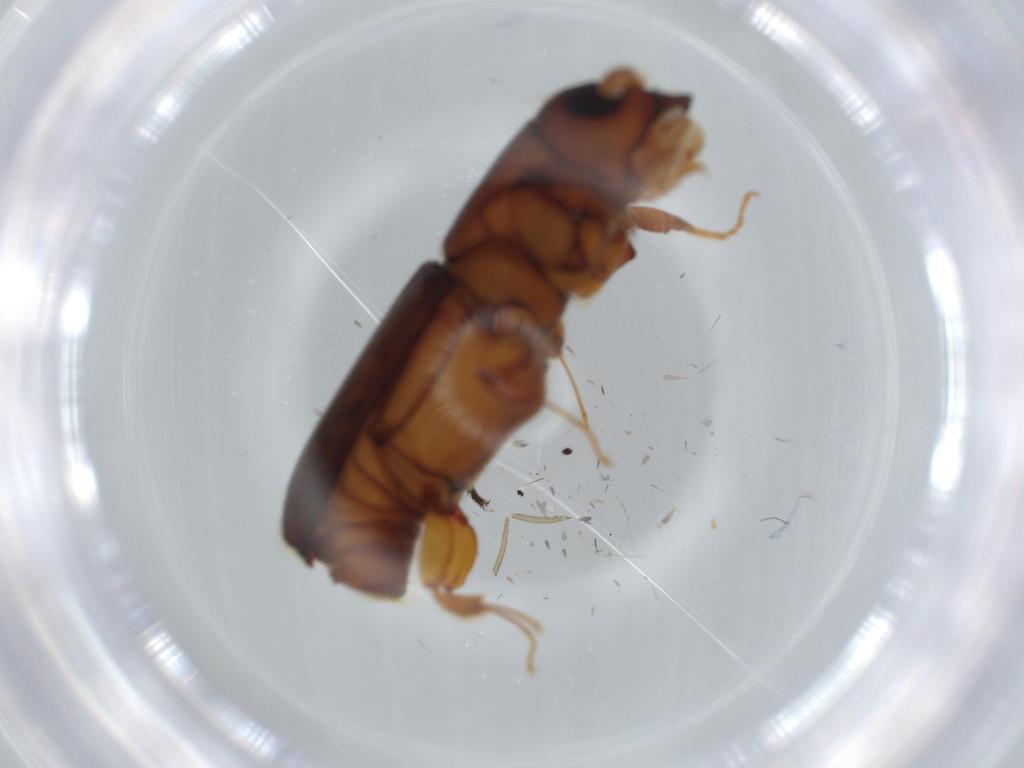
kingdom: Animalia
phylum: Arthropoda
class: Insecta
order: Coleoptera
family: Curculionidae
